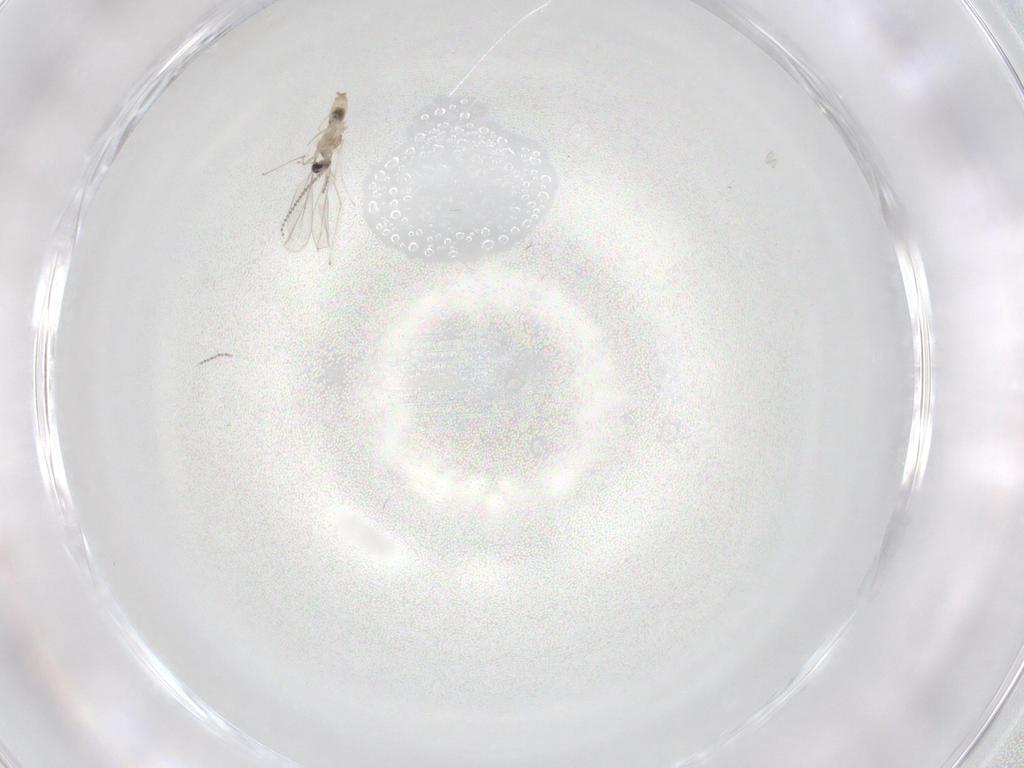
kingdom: Animalia
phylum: Arthropoda
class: Insecta
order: Diptera
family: Cecidomyiidae
